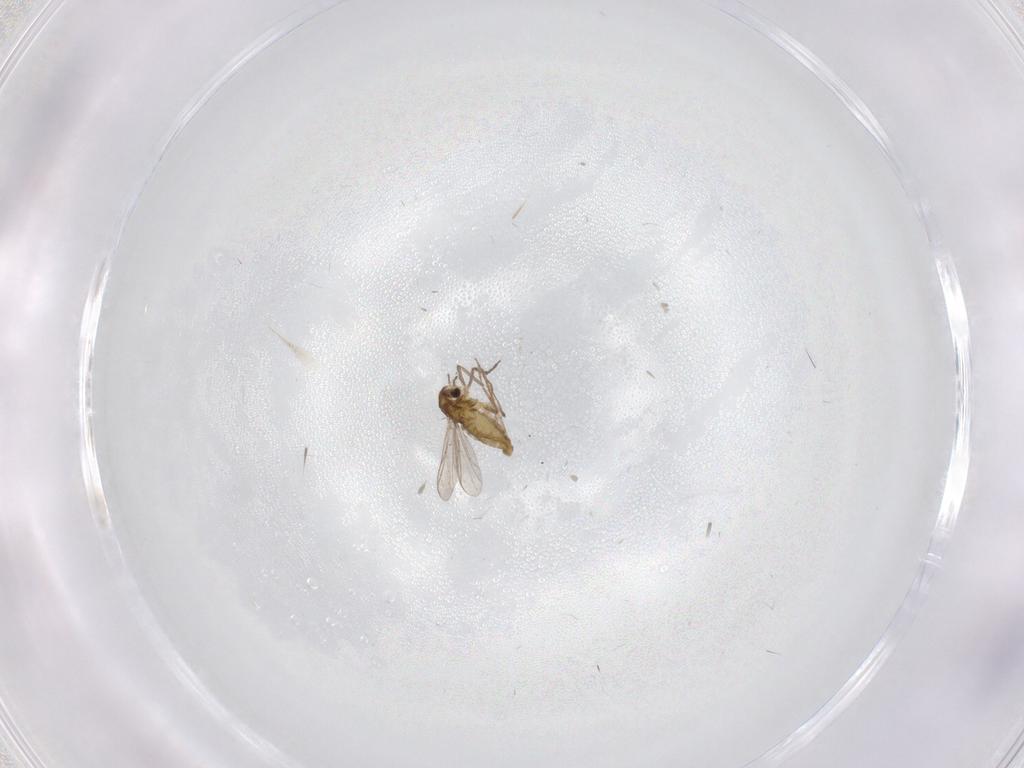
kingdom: Animalia
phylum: Arthropoda
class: Insecta
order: Diptera
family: Chironomidae
